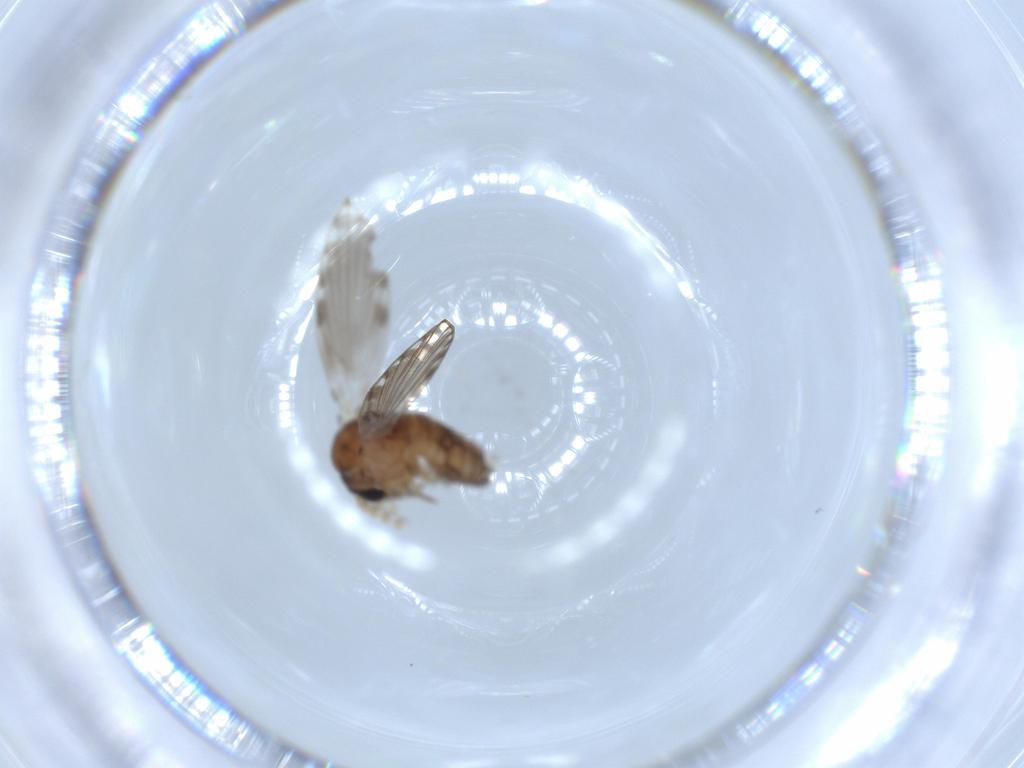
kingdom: Animalia
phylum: Arthropoda
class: Insecta
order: Diptera
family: Psychodidae
